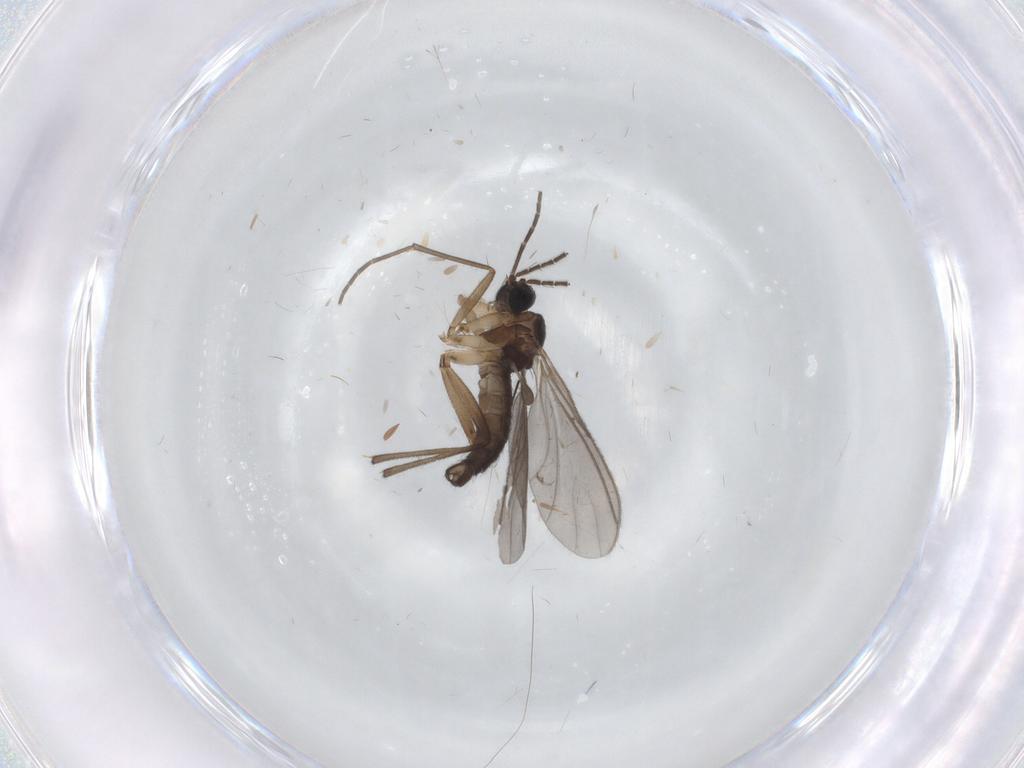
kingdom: Animalia
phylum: Arthropoda
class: Insecta
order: Diptera
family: Sciaridae
